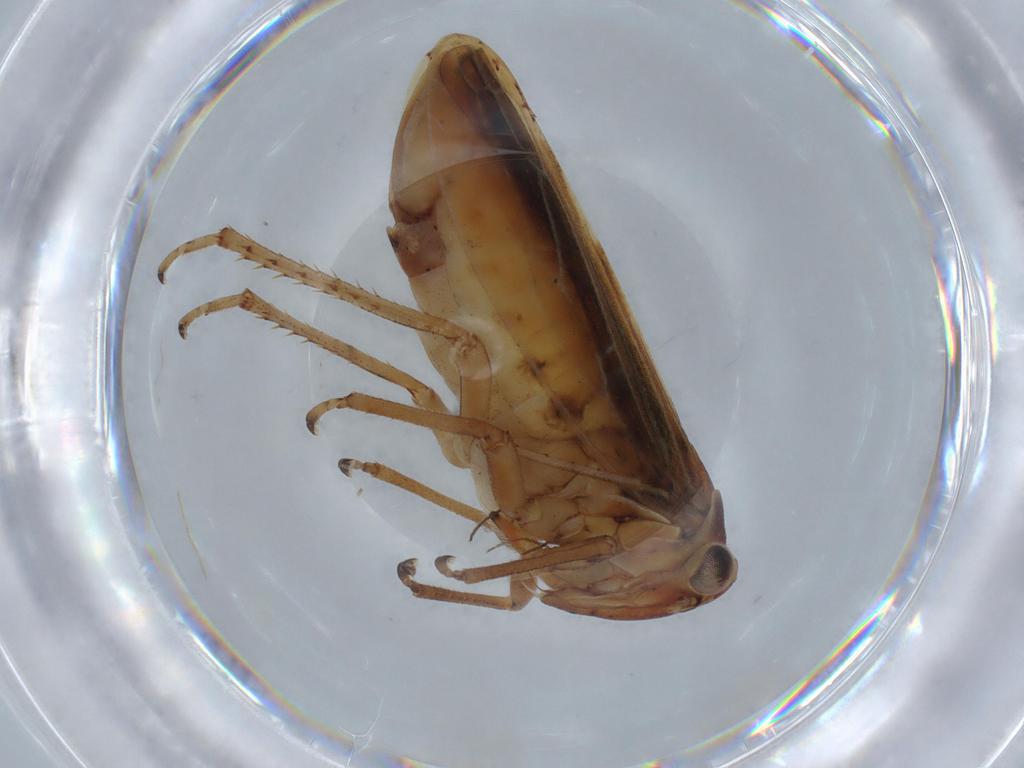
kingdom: Animalia
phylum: Arthropoda
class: Insecta
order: Hemiptera
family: Cicadellidae
